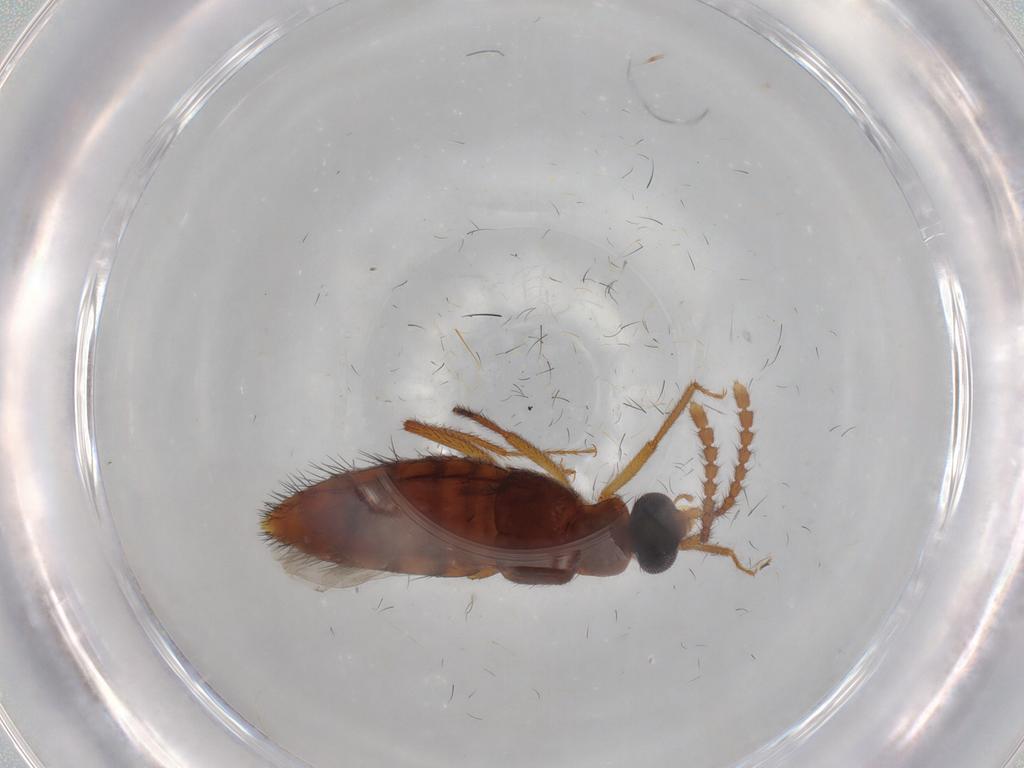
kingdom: Animalia
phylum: Arthropoda
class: Insecta
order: Coleoptera
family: Staphylinidae
